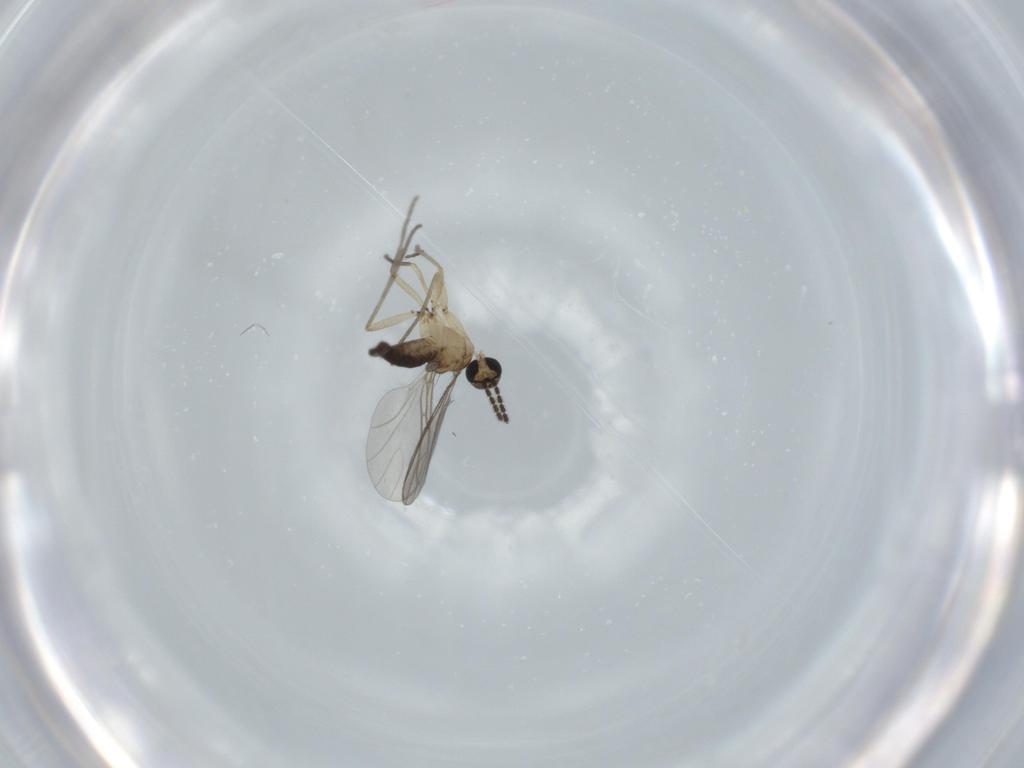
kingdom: Animalia
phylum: Arthropoda
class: Insecta
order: Diptera
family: Sciaridae
